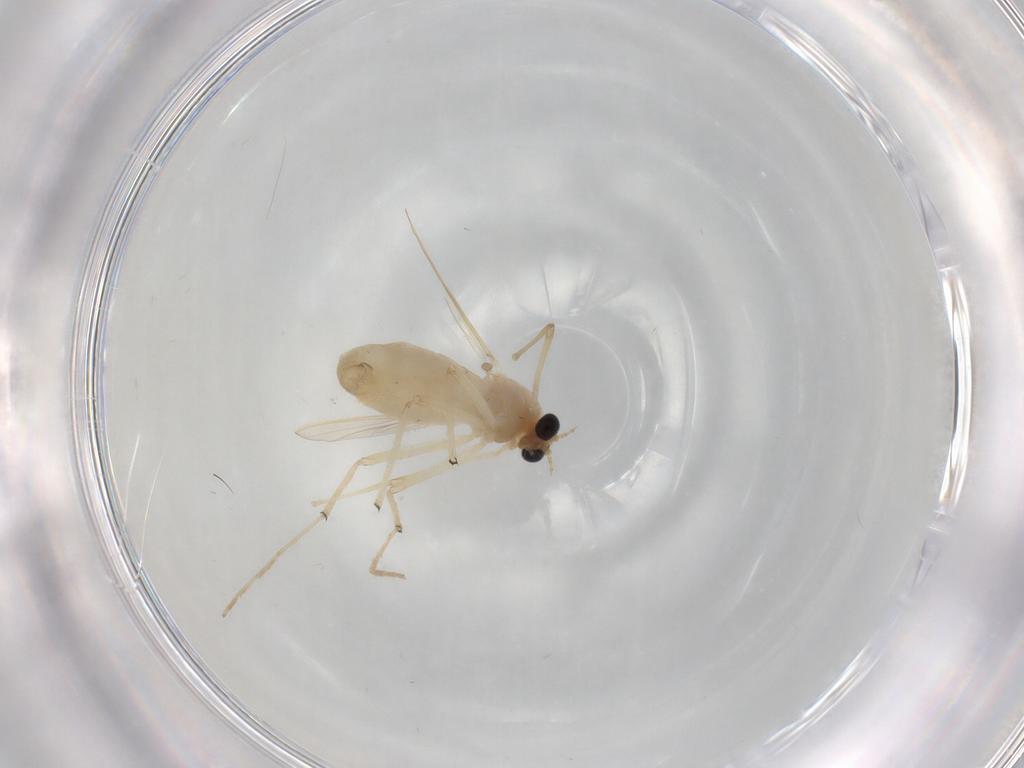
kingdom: Animalia
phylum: Arthropoda
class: Insecta
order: Diptera
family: Chironomidae
